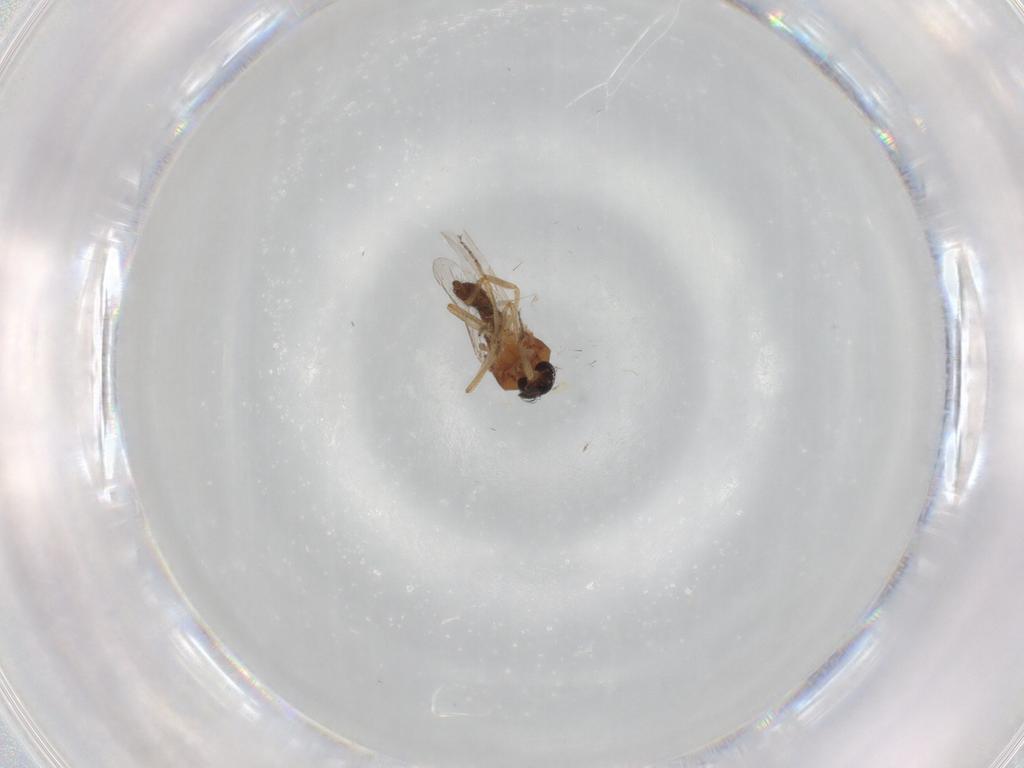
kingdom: Animalia
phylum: Arthropoda
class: Insecta
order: Diptera
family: Ceratopogonidae
